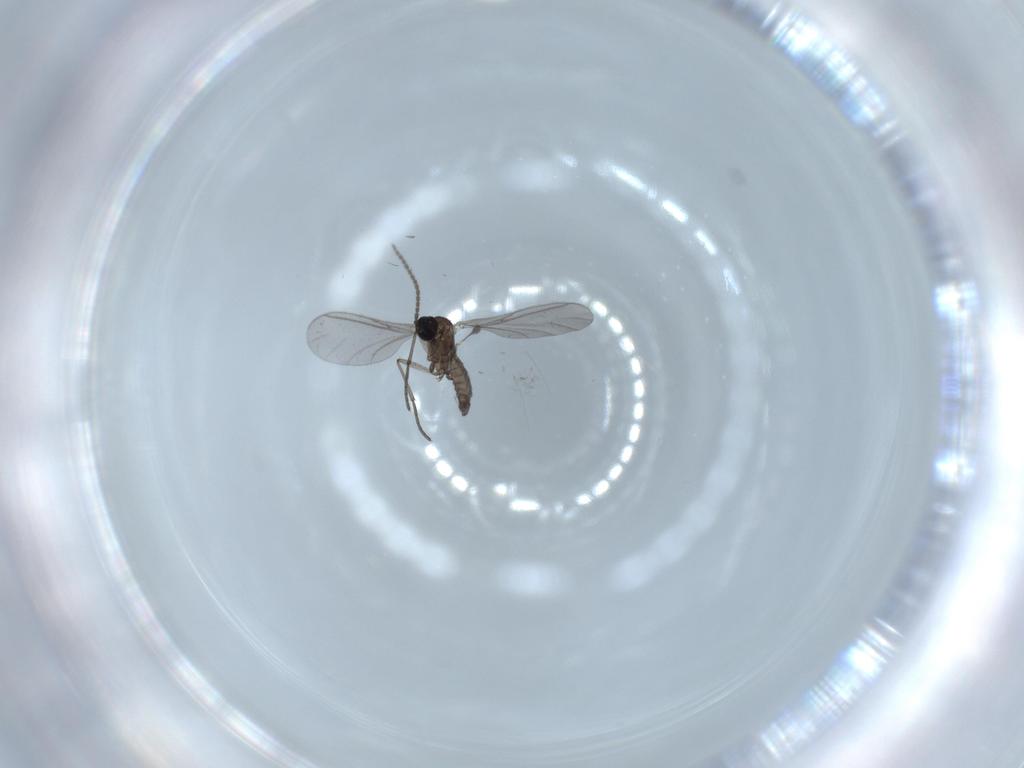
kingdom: Animalia
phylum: Arthropoda
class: Insecta
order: Diptera
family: Sciaridae
